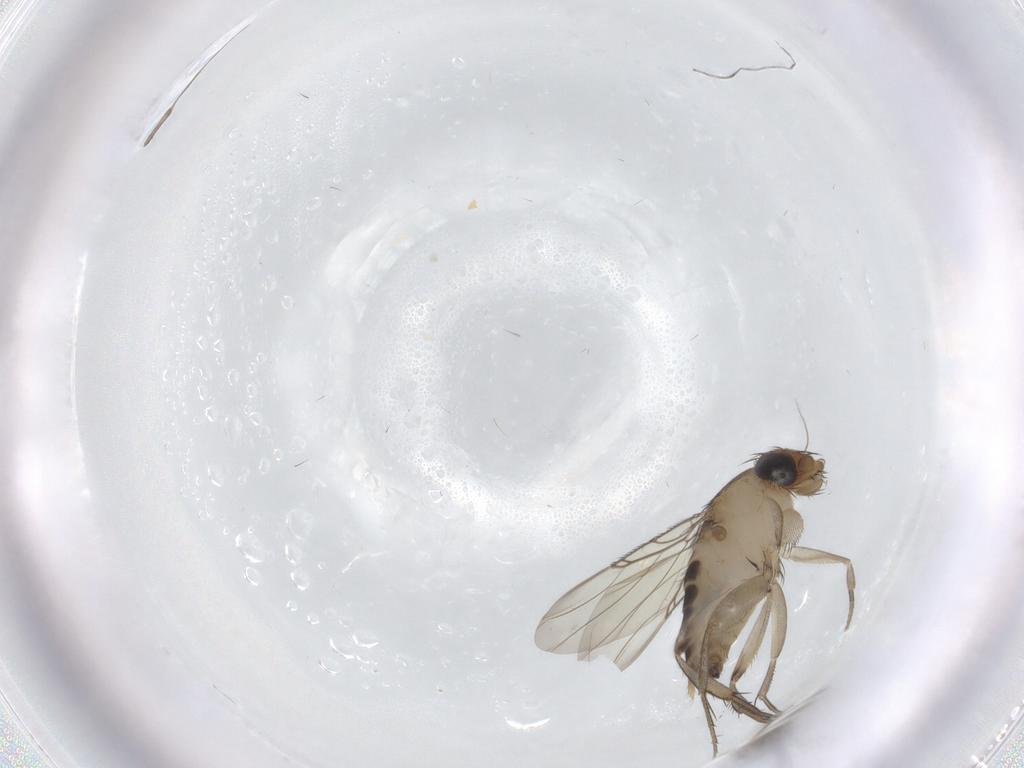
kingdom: Animalia
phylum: Arthropoda
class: Insecta
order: Diptera
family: Phoridae
